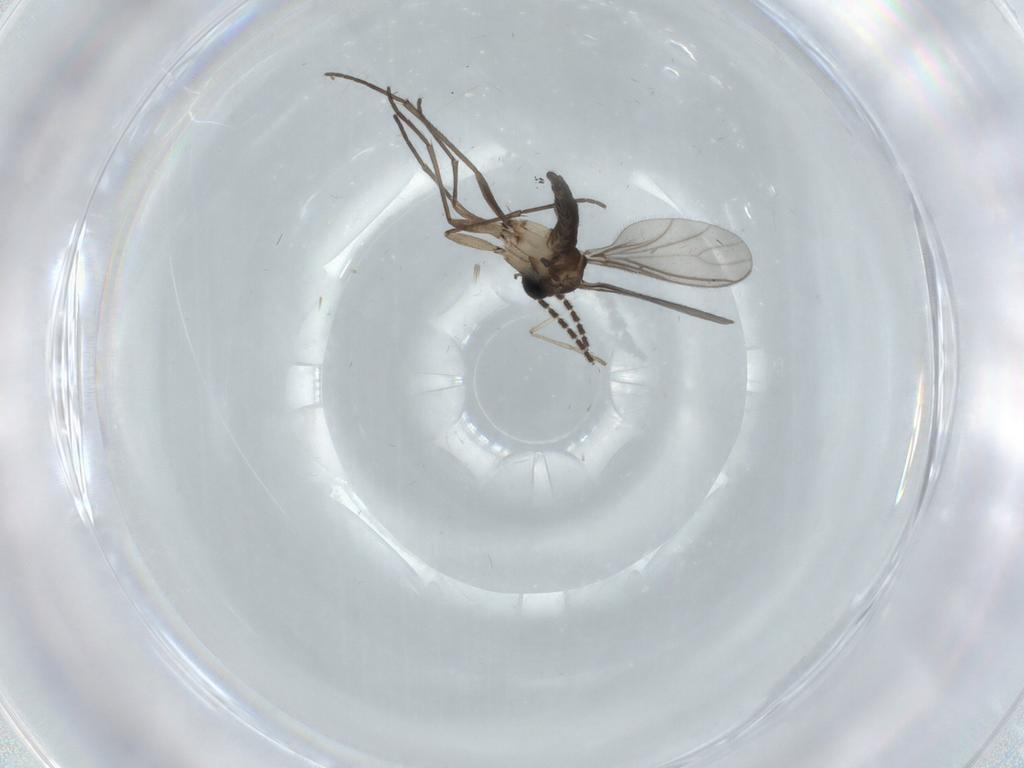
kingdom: Animalia
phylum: Arthropoda
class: Insecta
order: Diptera
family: Sciaridae
